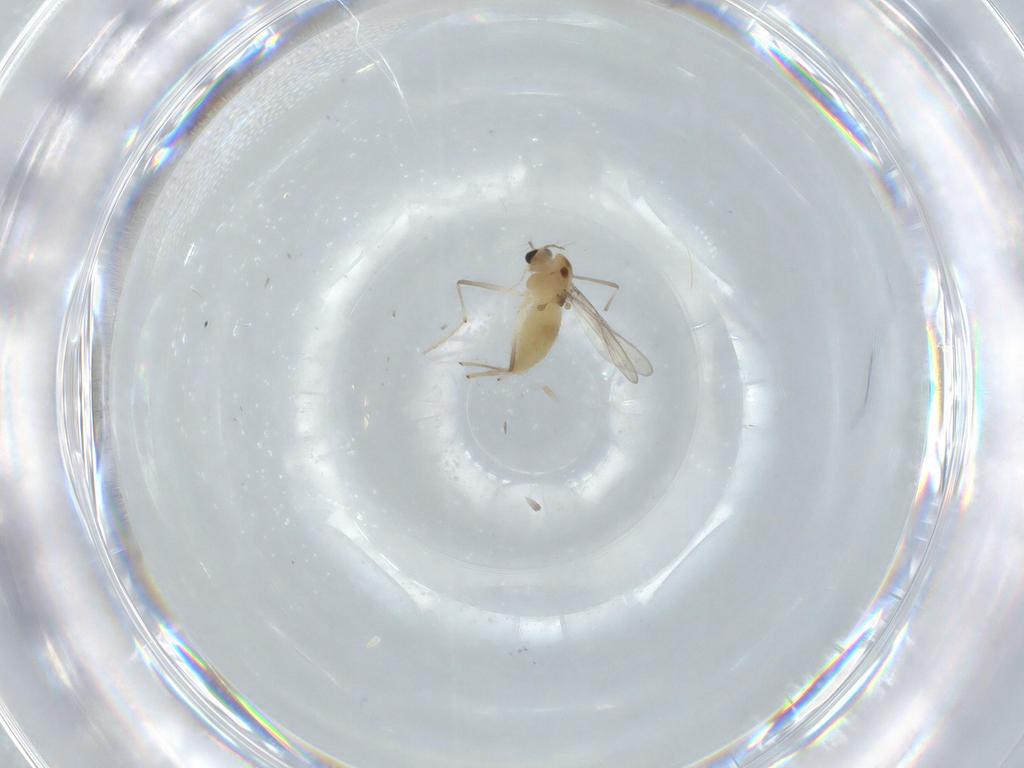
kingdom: Animalia
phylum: Arthropoda
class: Insecta
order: Diptera
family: Chironomidae
